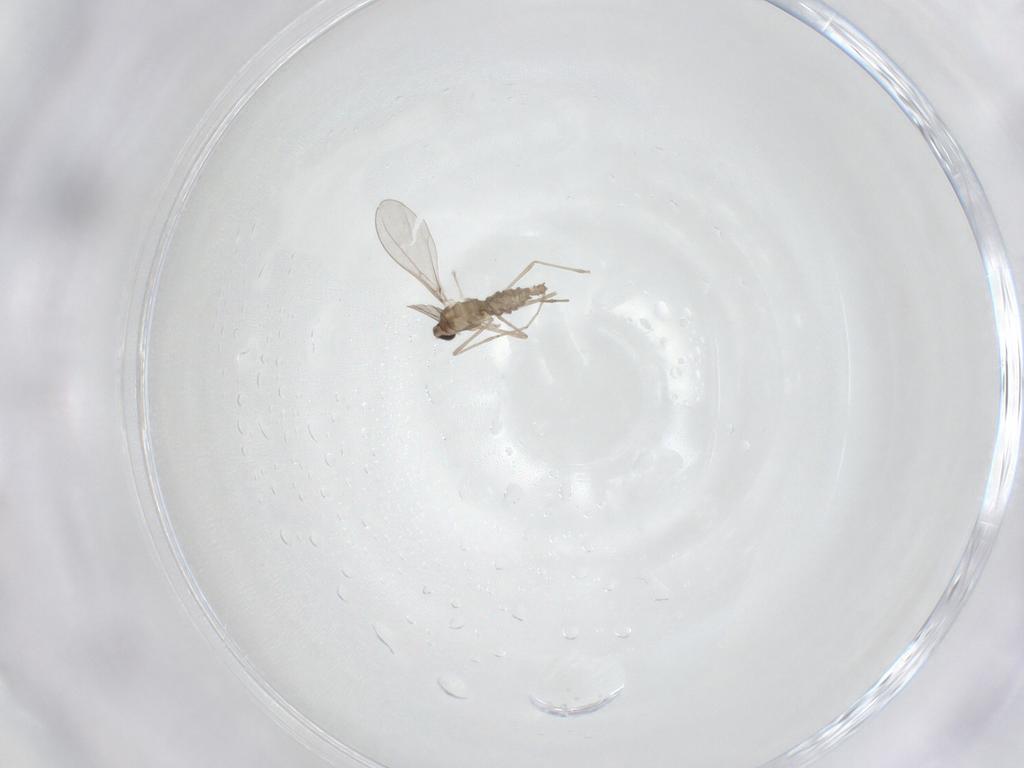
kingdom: Animalia
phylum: Arthropoda
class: Insecta
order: Diptera
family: Cecidomyiidae
